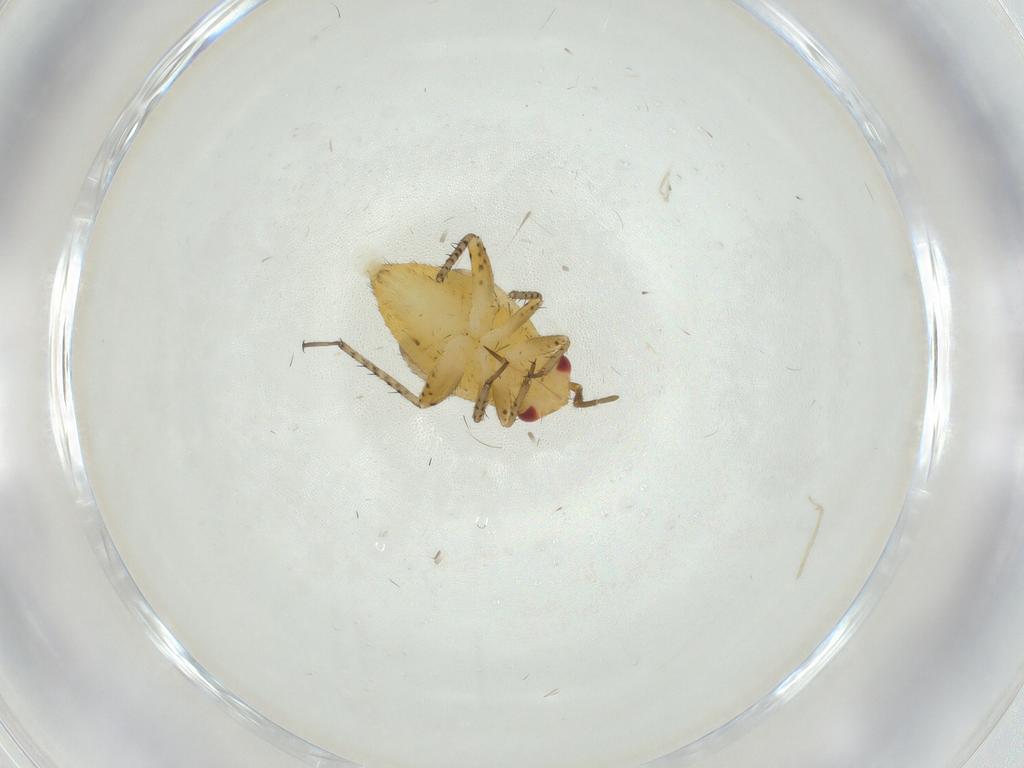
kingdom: Animalia
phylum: Arthropoda
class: Insecta
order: Hemiptera
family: Miridae
